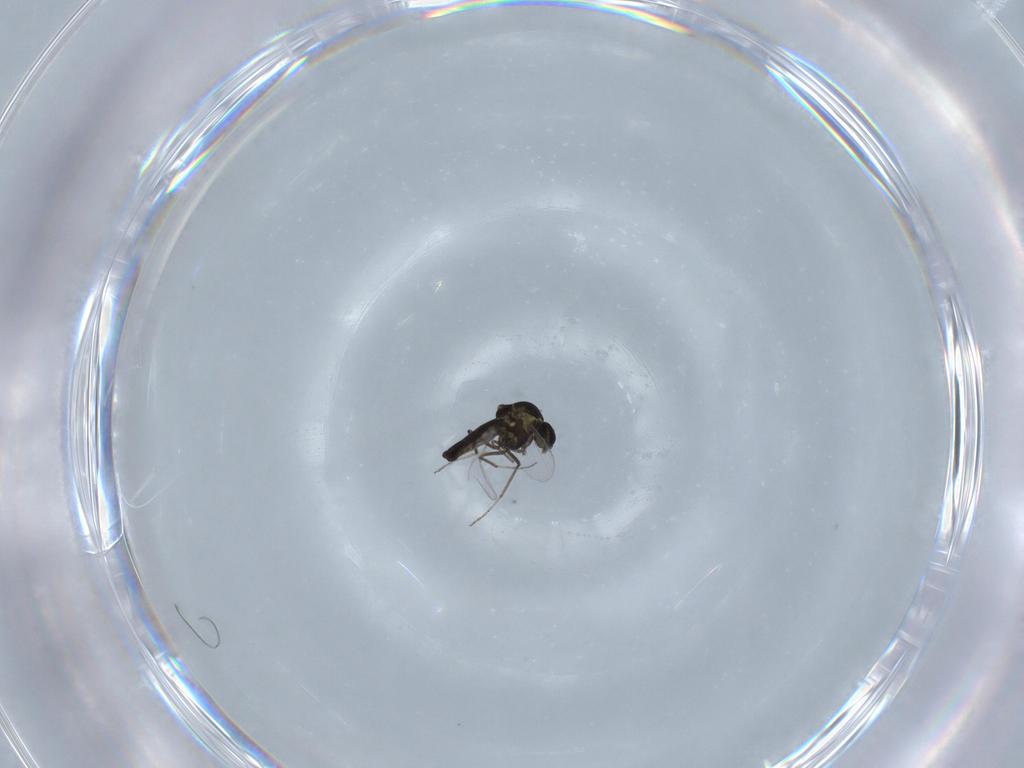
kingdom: Animalia
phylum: Arthropoda
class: Insecta
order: Diptera
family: Ceratopogonidae
